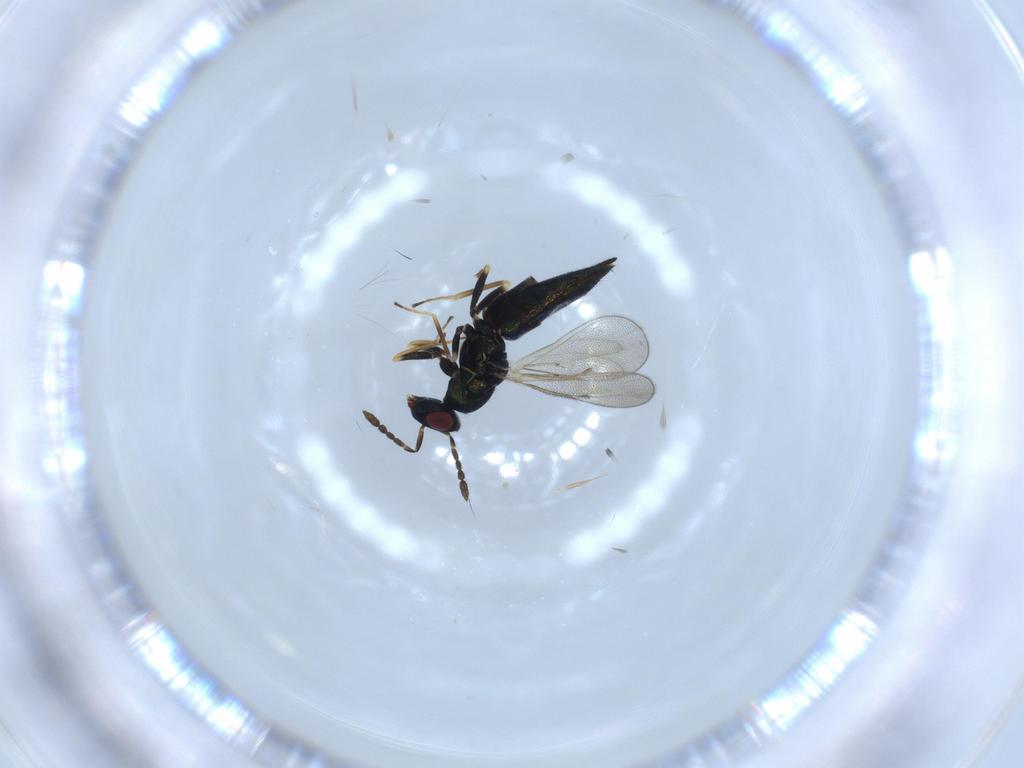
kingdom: Animalia
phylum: Arthropoda
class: Insecta
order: Hymenoptera
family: Eulophidae
